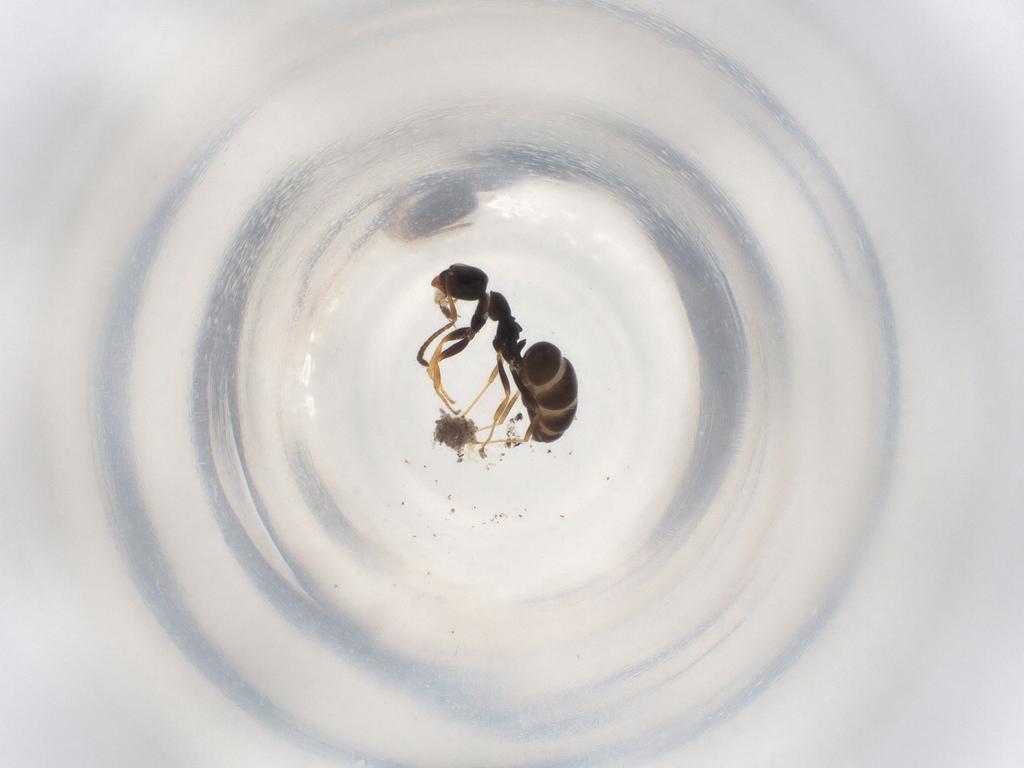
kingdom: Animalia
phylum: Arthropoda
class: Insecta
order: Hymenoptera
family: Formicidae
